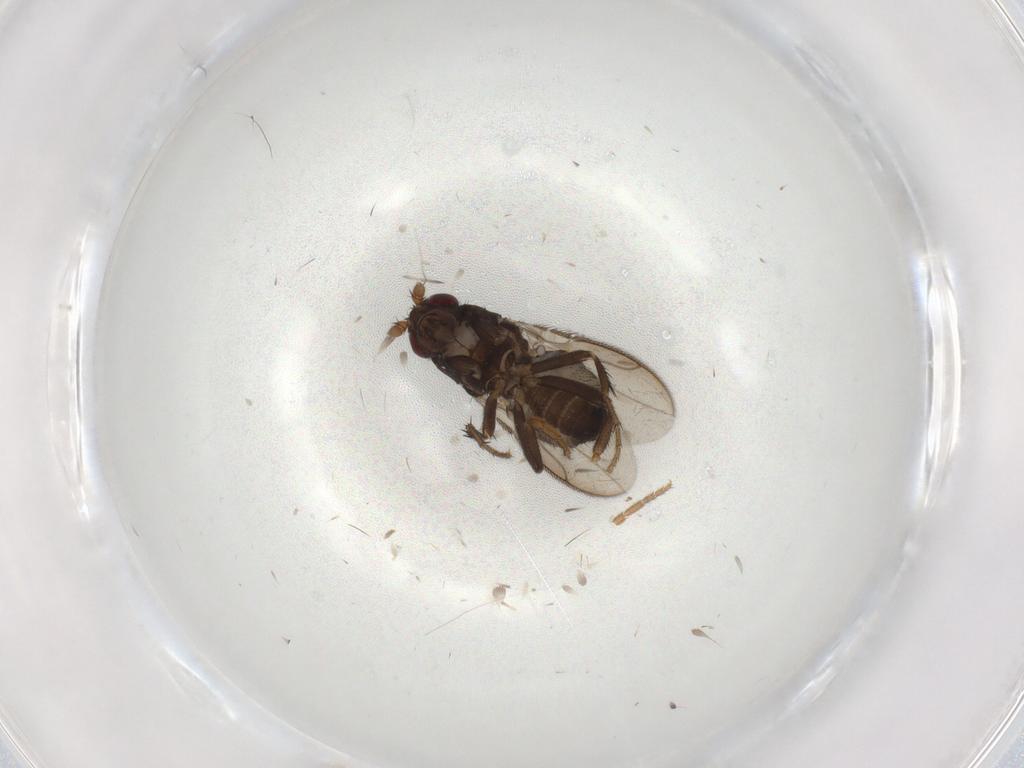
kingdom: Animalia
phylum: Arthropoda
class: Insecta
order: Diptera
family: Sphaeroceridae
